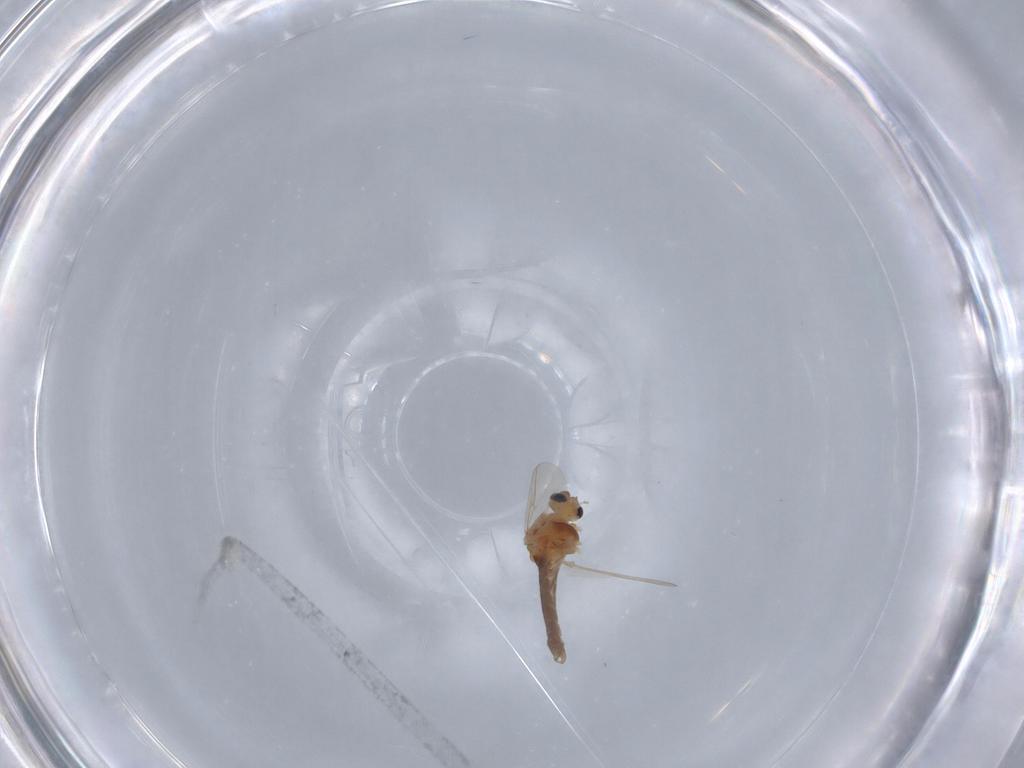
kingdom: Animalia
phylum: Arthropoda
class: Insecta
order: Diptera
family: Chironomidae
